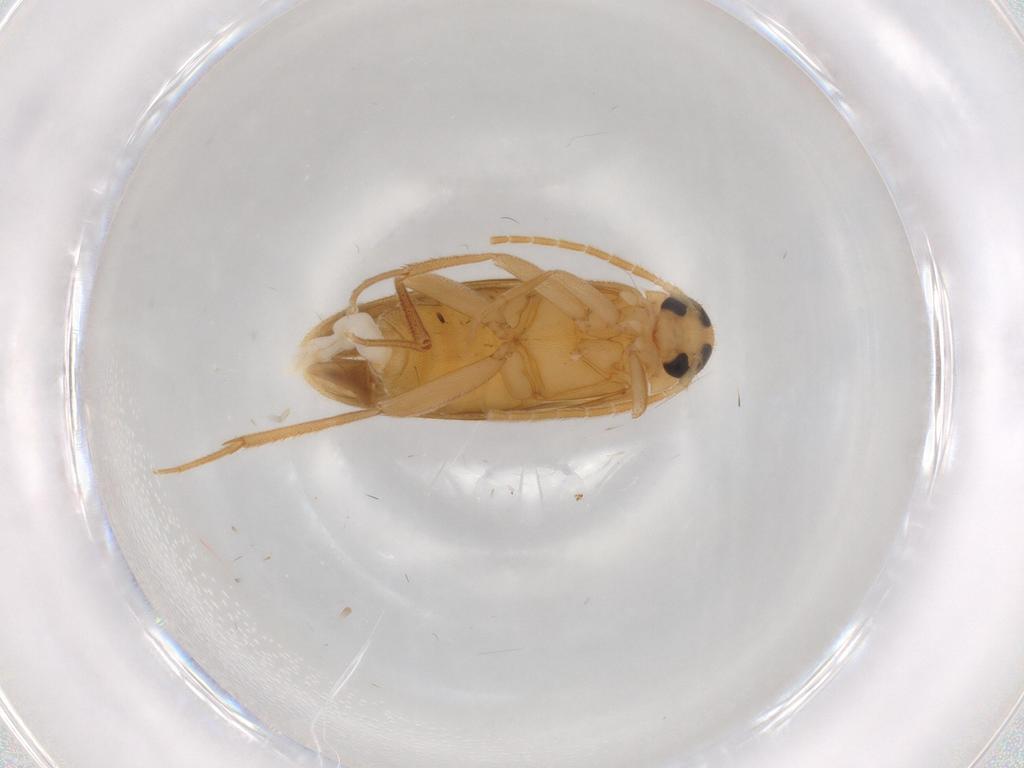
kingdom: Animalia
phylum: Arthropoda
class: Insecta
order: Coleoptera
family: Scraptiidae
